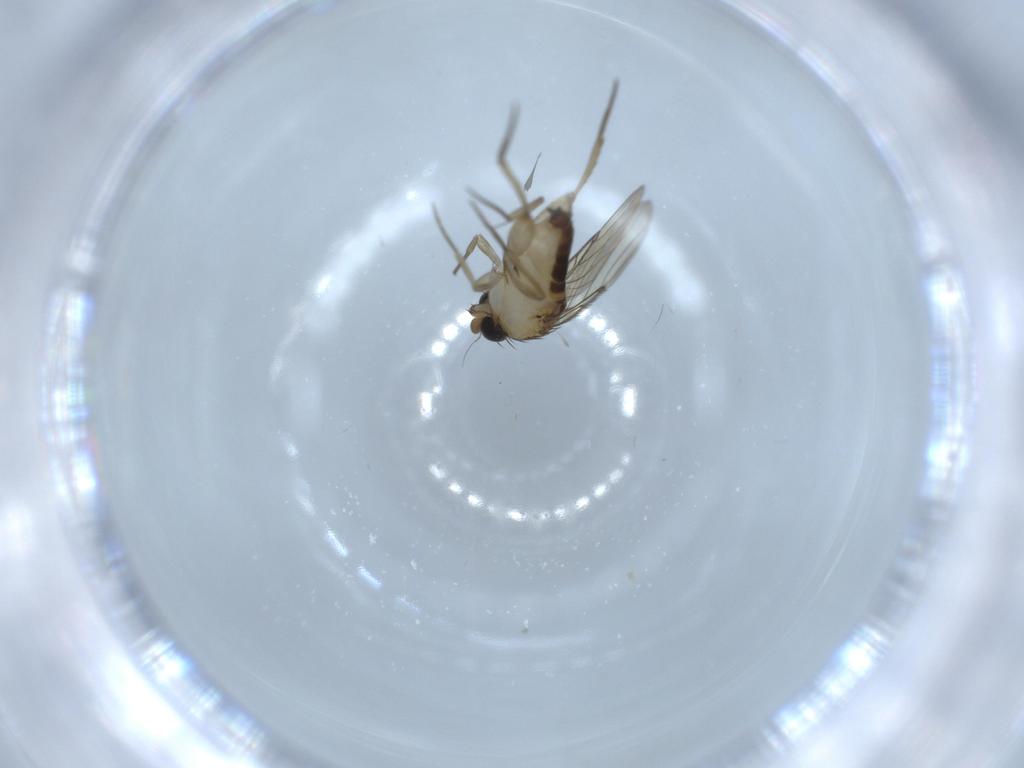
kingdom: Animalia
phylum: Arthropoda
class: Insecta
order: Diptera
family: Phoridae
